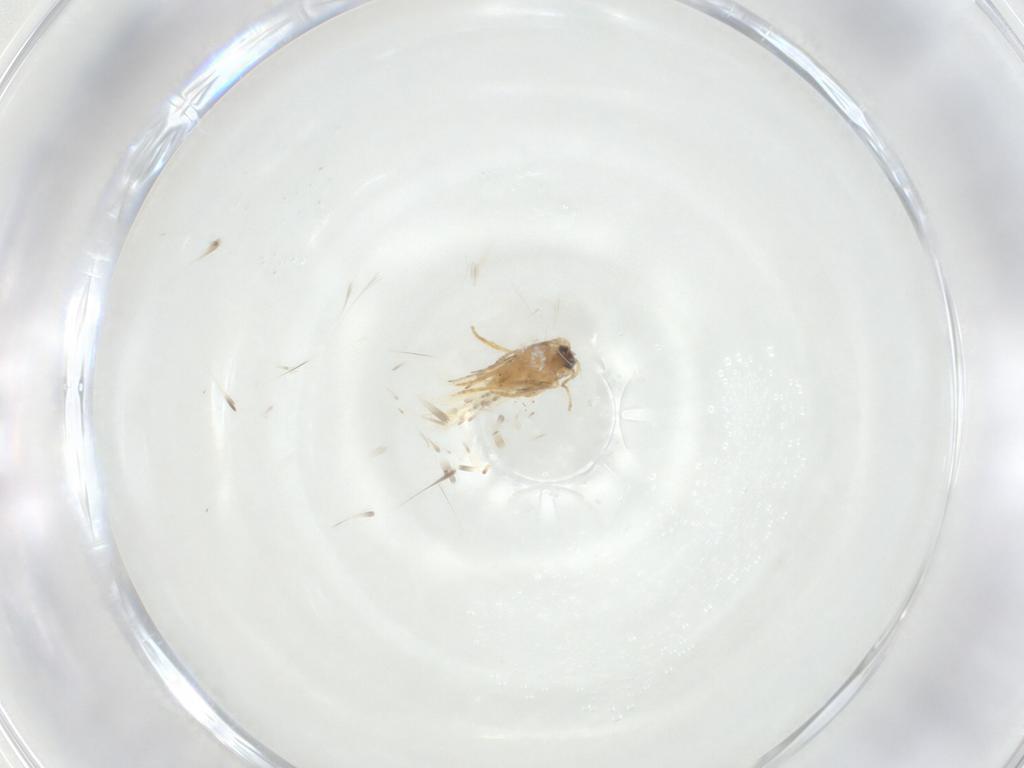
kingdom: Animalia
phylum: Arthropoda
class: Insecta
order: Lepidoptera
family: Nepticulidae
